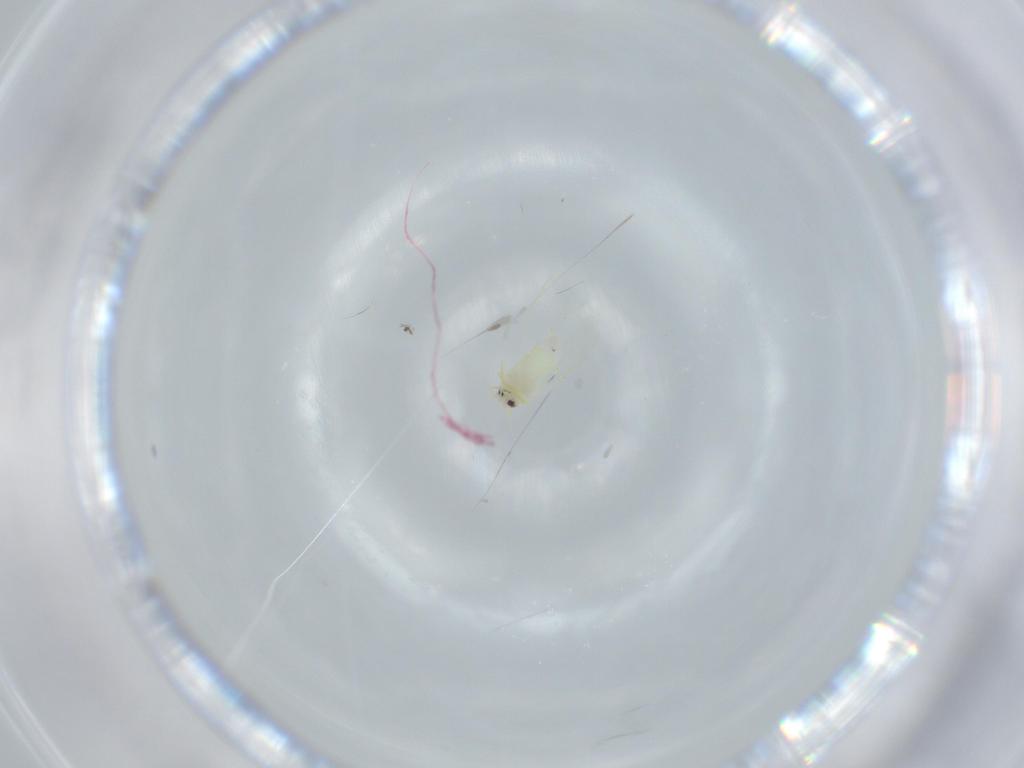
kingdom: Animalia
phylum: Arthropoda
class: Insecta
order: Hemiptera
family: Aleyrodidae
